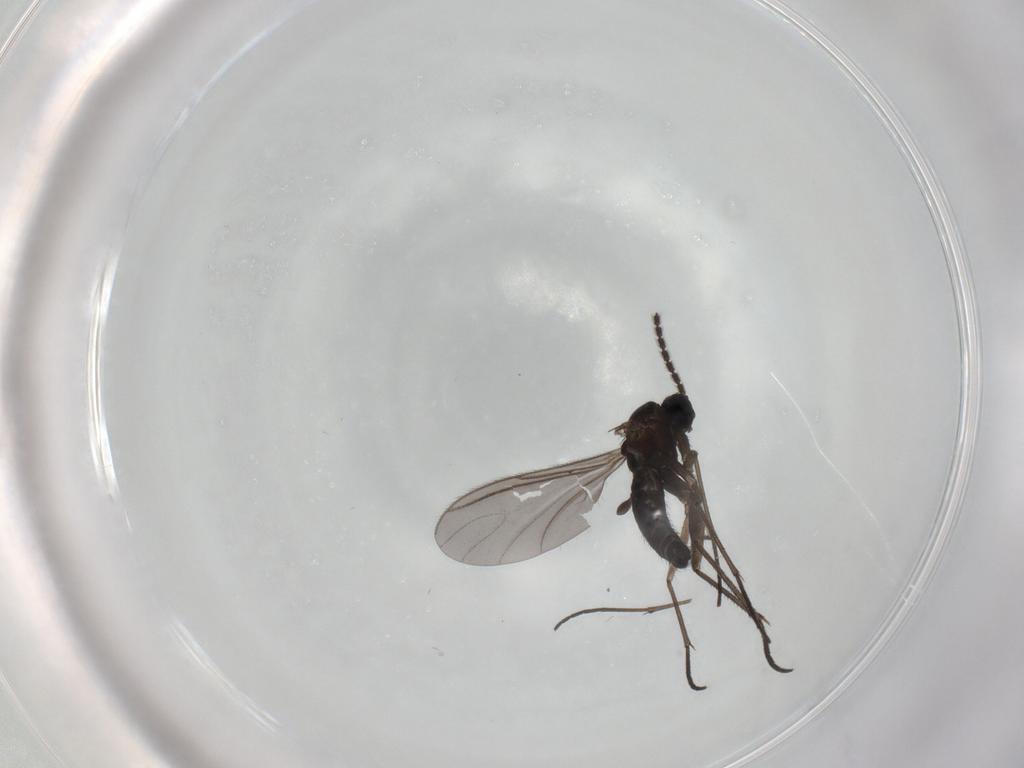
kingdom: Animalia
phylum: Arthropoda
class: Insecta
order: Diptera
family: Sciaridae
